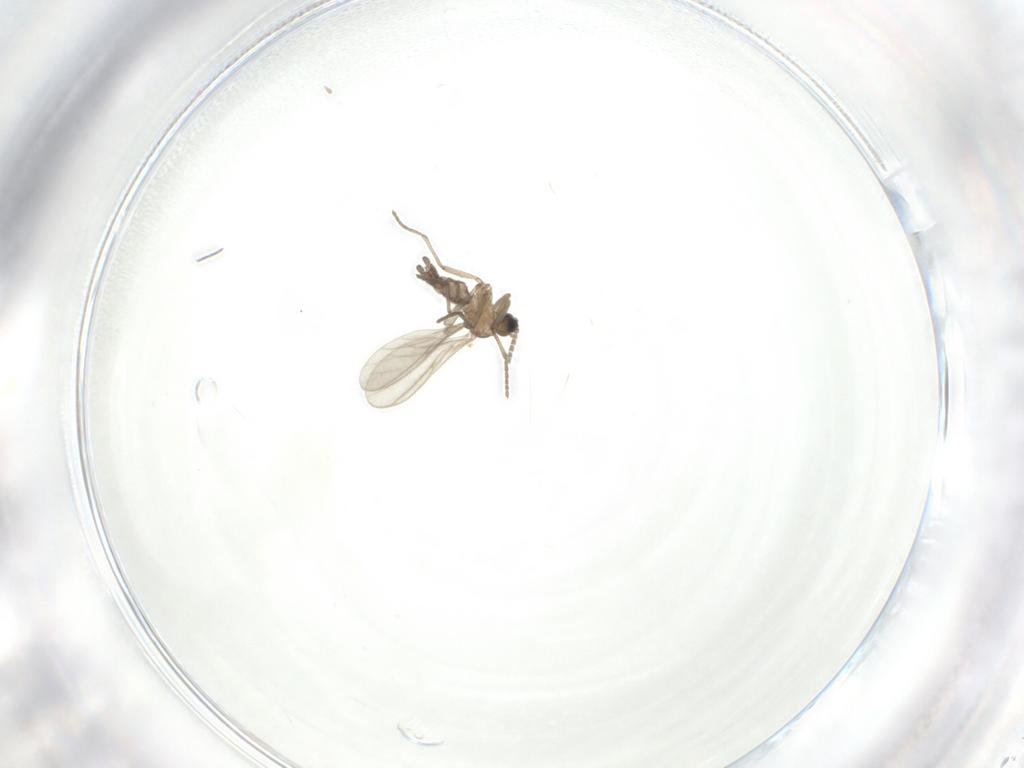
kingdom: Animalia
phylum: Arthropoda
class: Insecta
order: Diptera
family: Sciaridae
